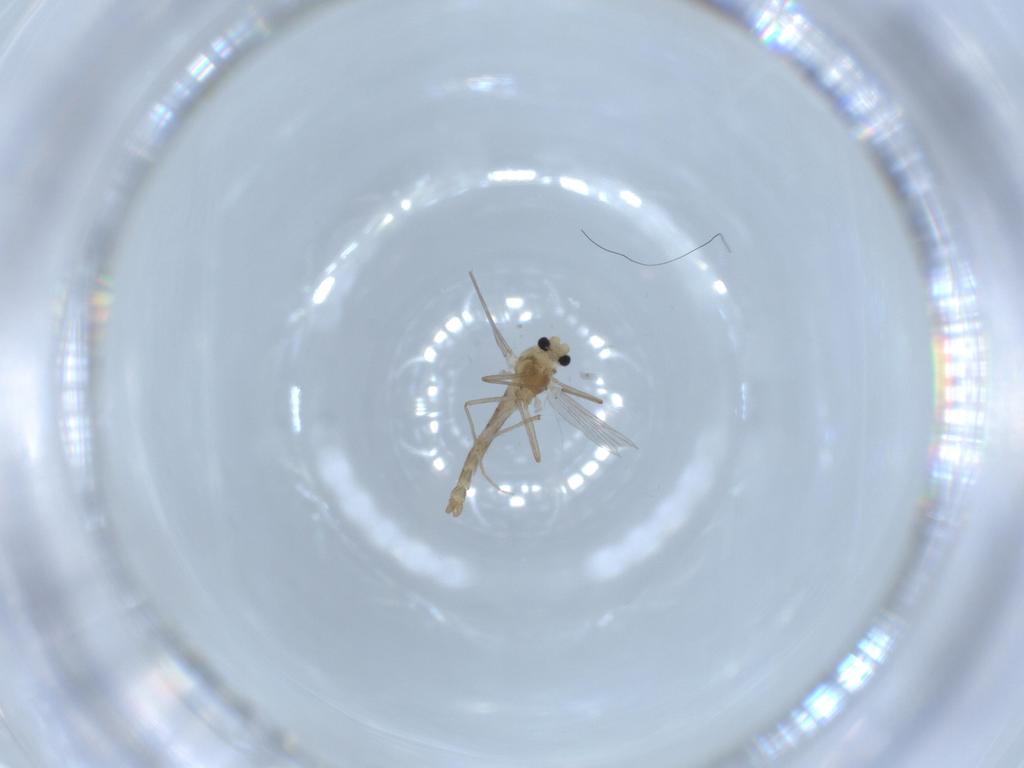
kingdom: Animalia
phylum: Arthropoda
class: Insecta
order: Diptera
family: Chironomidae
